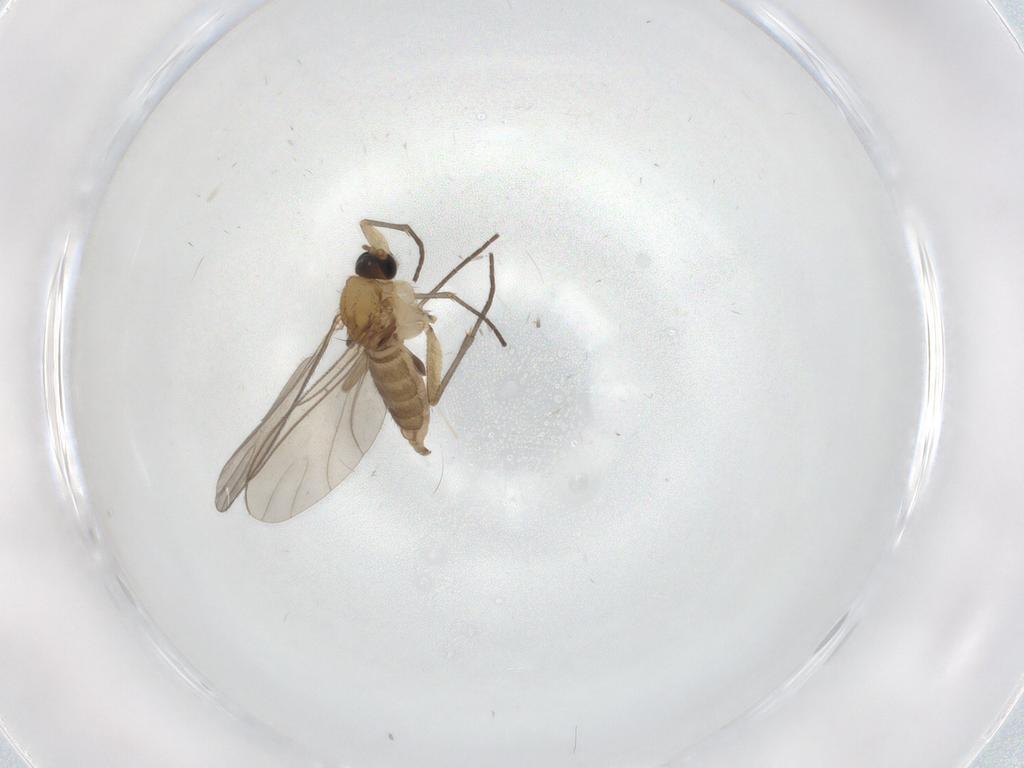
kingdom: Animalia
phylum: Arthropoda
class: Insecta
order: Diptera
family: Sciaridae
